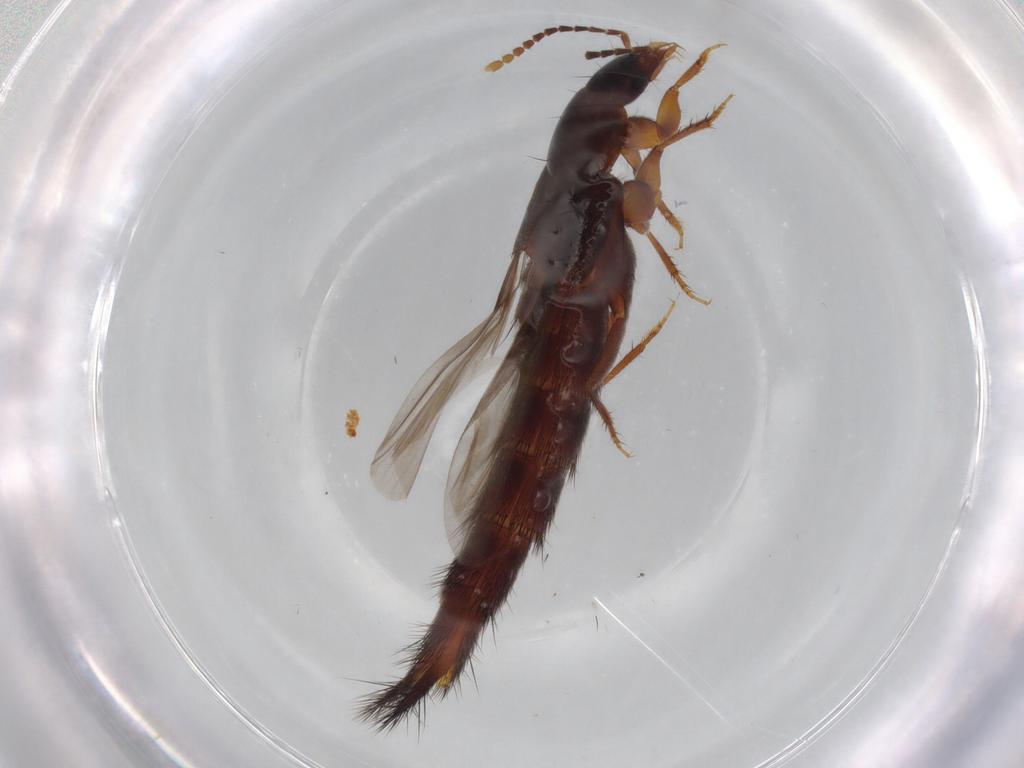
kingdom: Animalia
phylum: Arthropoda
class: Insecta
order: Coleoptera
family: Staphylinidae
